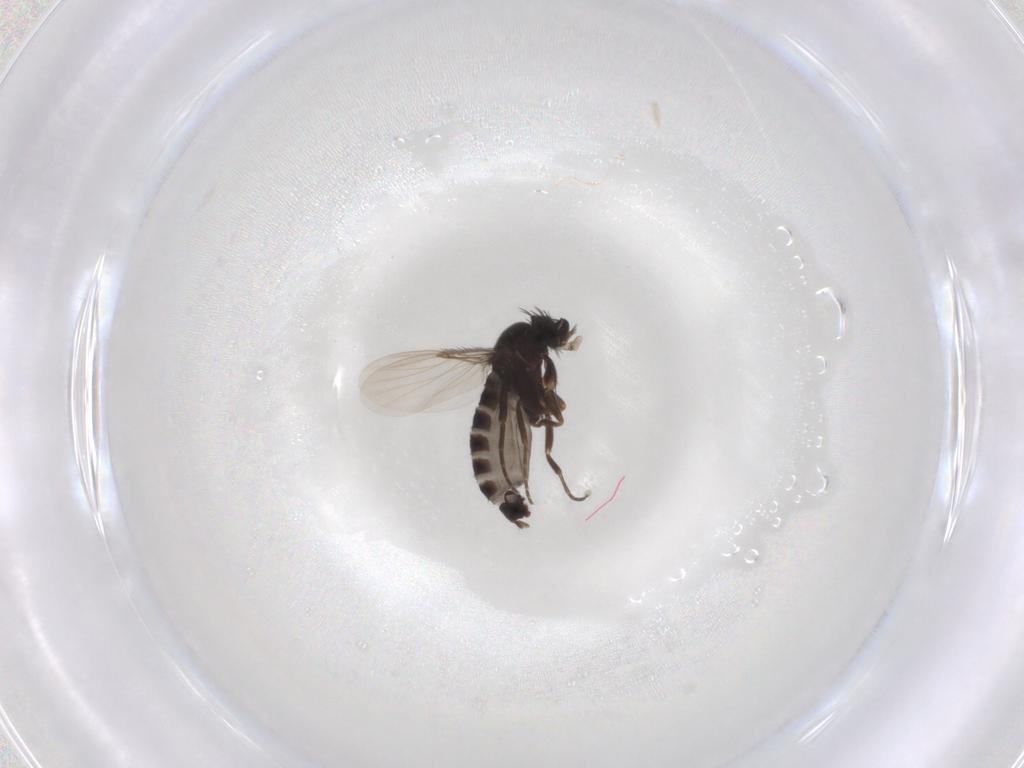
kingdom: Animalia
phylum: Arthropoda
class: Insecta
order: Diptera
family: Phoridae
